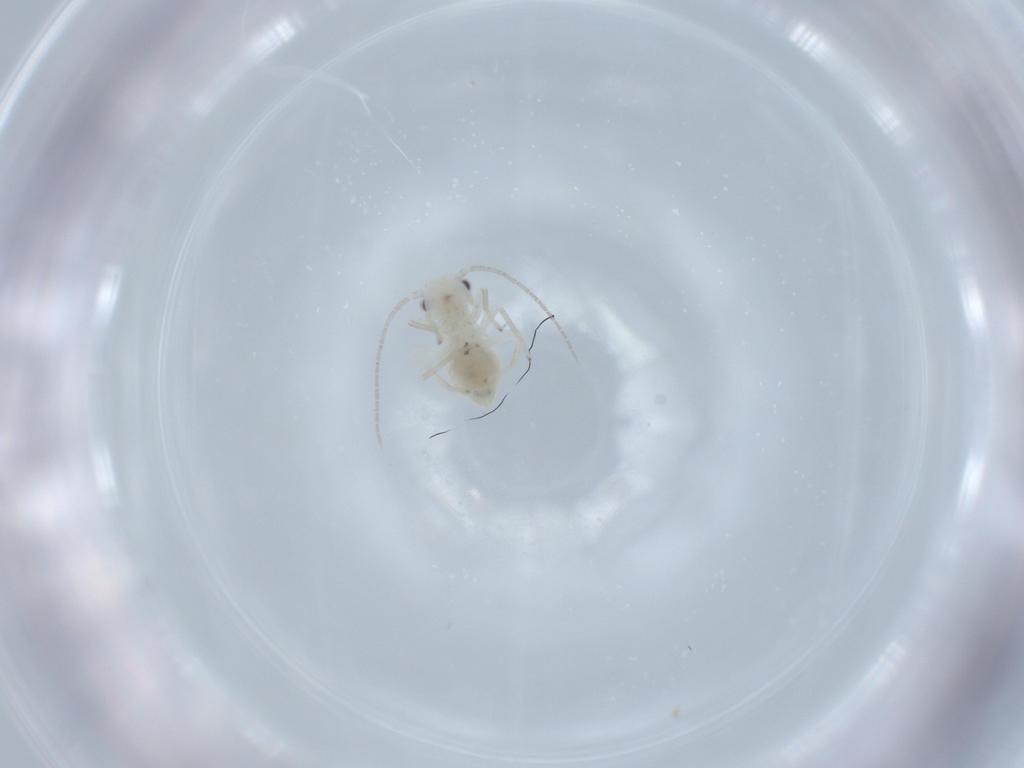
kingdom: Animalia
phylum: Arthropoda
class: Insecta
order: Psocodea
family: Caeciliusidae
